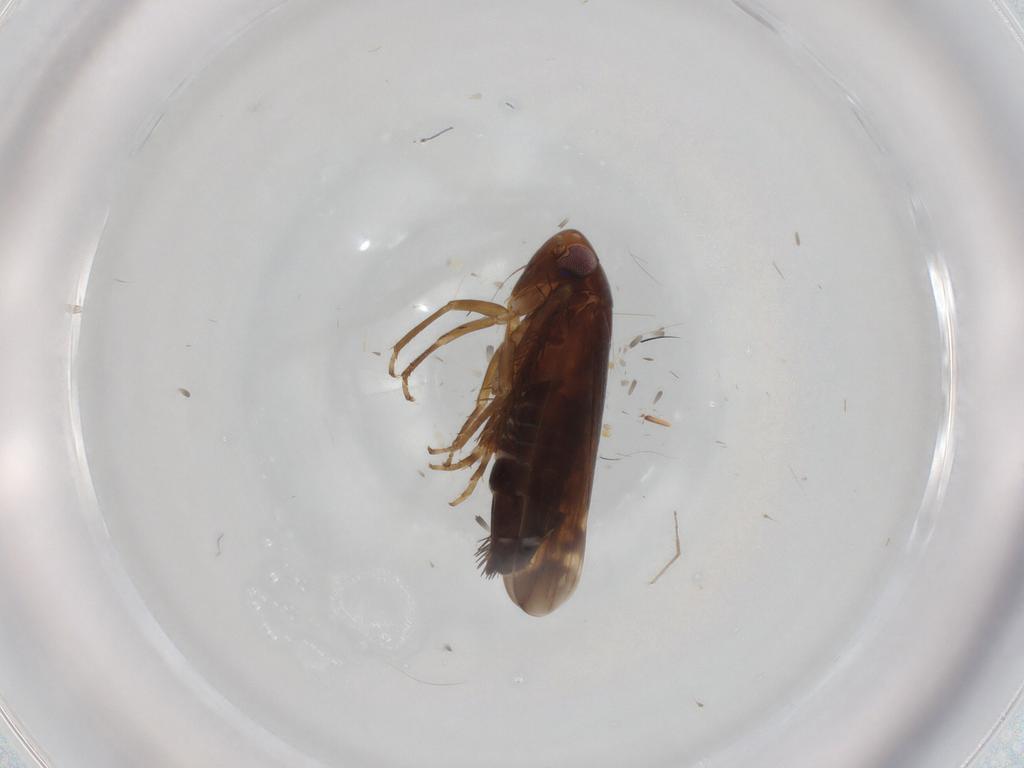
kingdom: Animalia
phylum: Arthropoda
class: Insecta
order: Hemiptera
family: Cicadellidae
